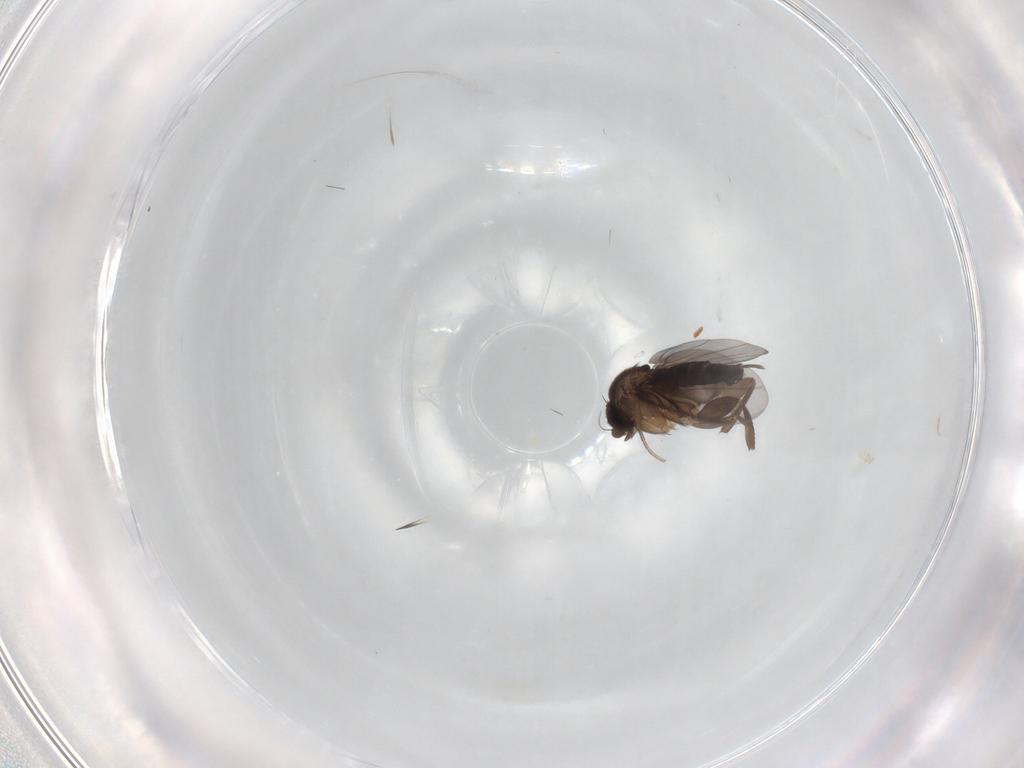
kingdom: Animalia
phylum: Arthropoda
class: Insecta
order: Diptera
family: Phoridae
